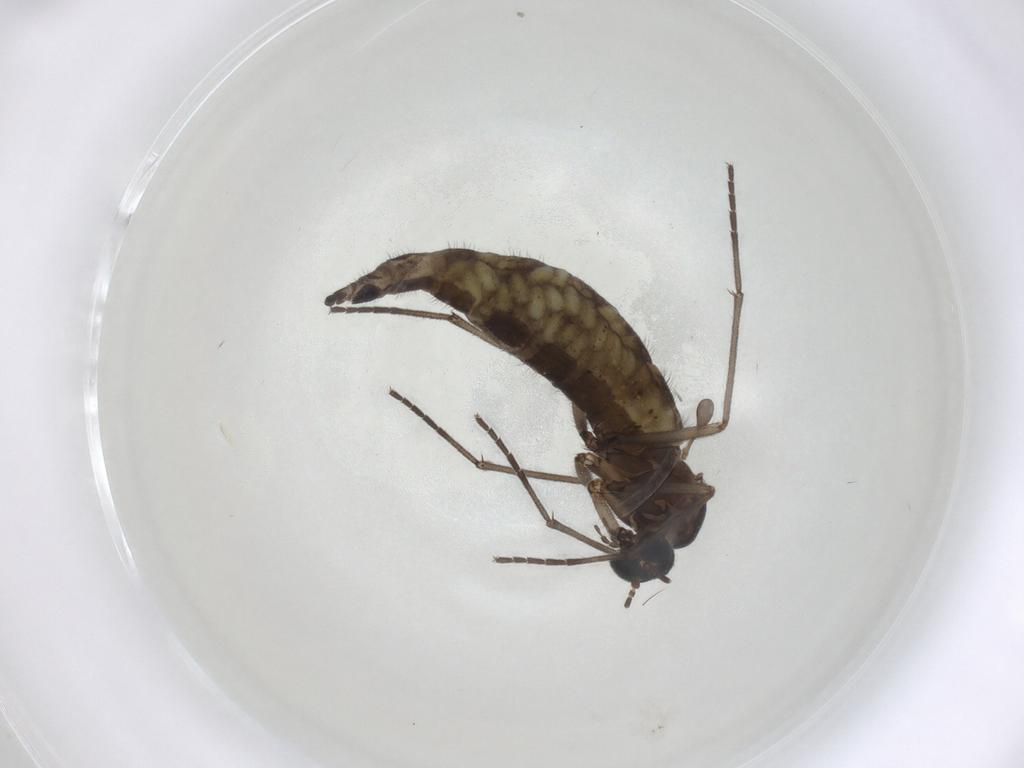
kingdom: Animalia
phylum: Arthropoda
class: Insecta
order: Diptera
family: Sciaridae
